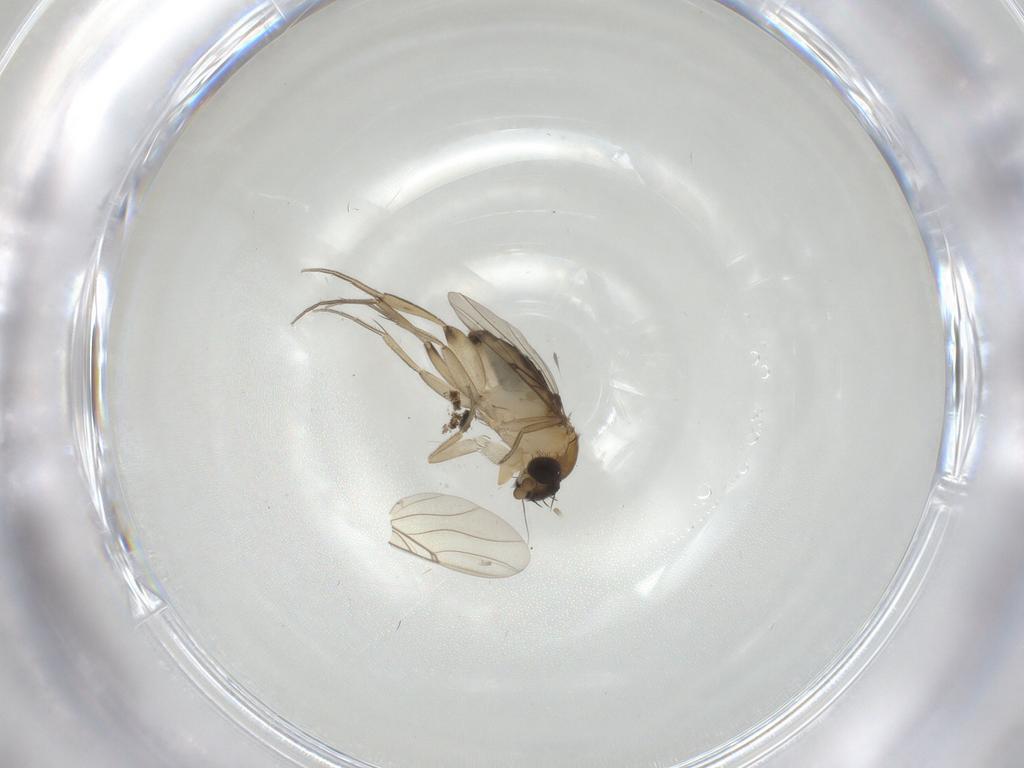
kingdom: Animalia
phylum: Arthropoda
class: Insecta
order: Diptera
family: Phoridae
